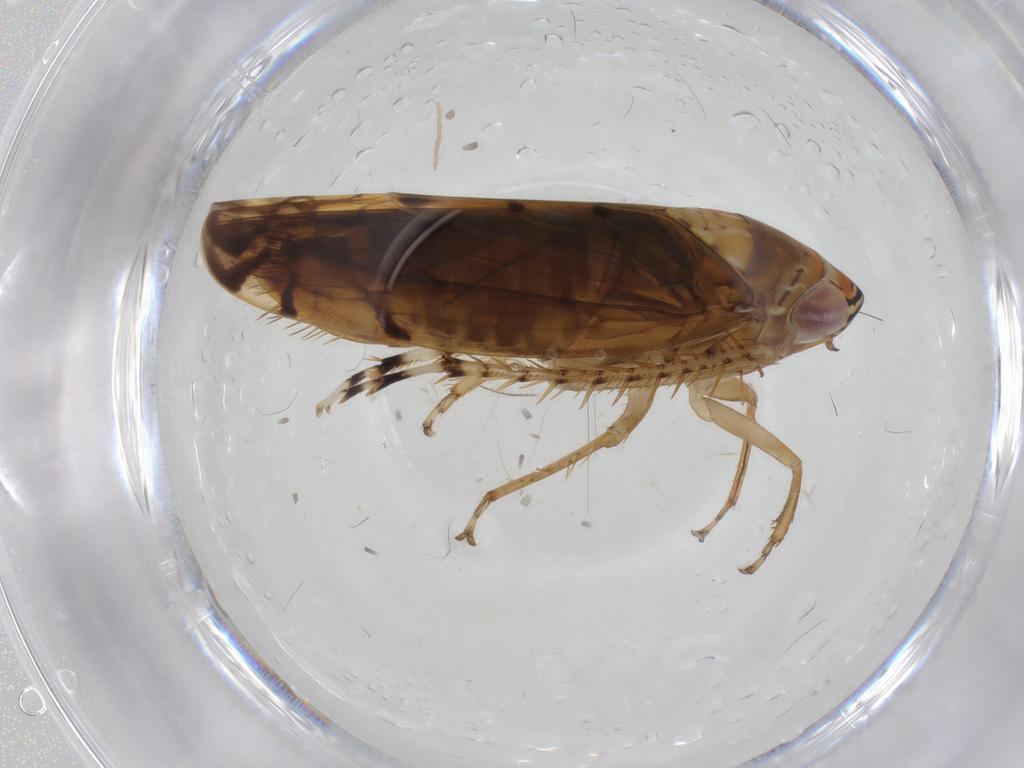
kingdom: Animalia
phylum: Arthropoda
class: Insecta
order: Hemiptera
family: Cicadellidae
